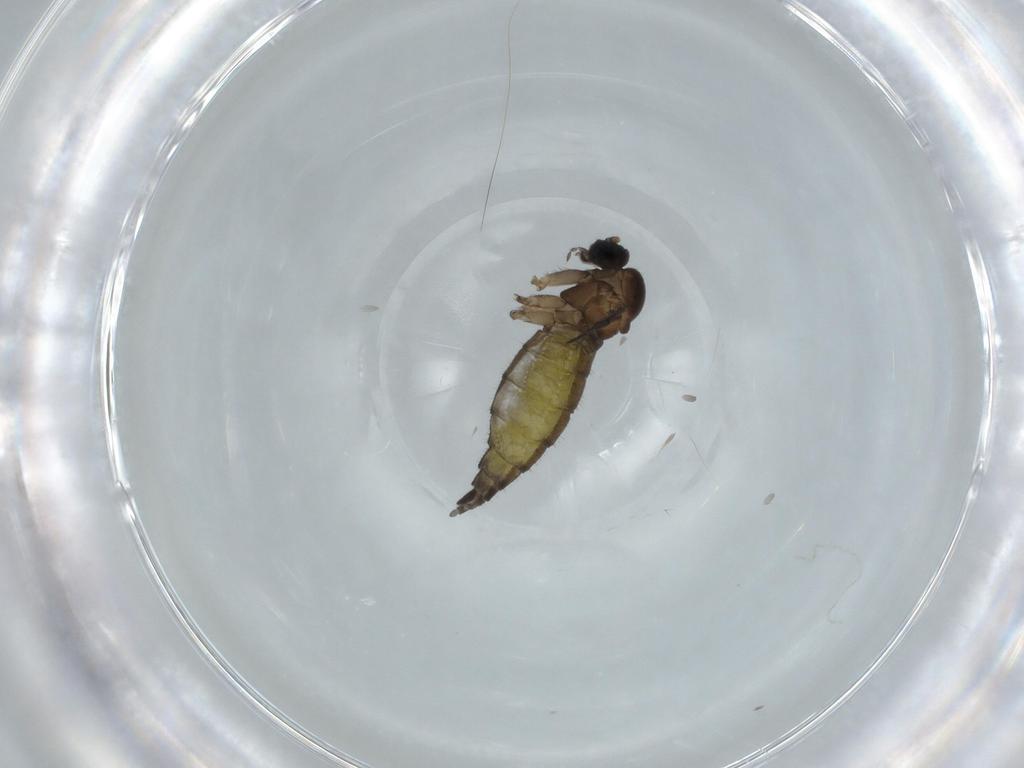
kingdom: Animalia
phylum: Arthropoda
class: Insecta
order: Diptera
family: Sciaridae
